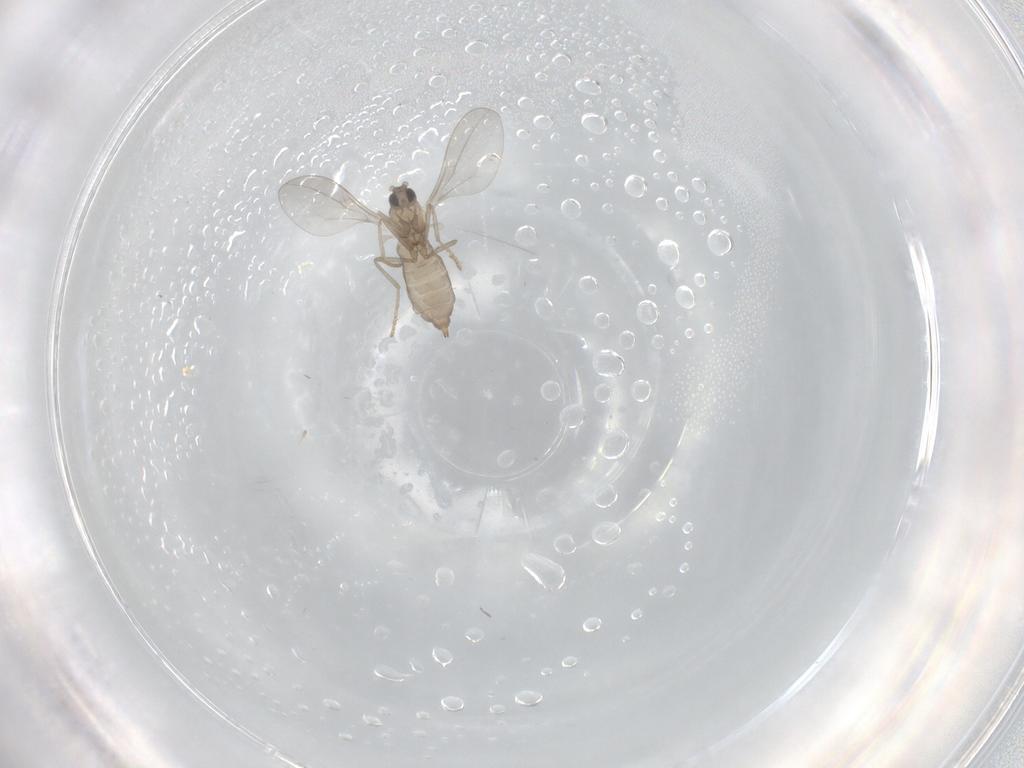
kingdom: Animalia
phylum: Arthropoda
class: Insecta
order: Diptera
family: Cecidomyiidae
